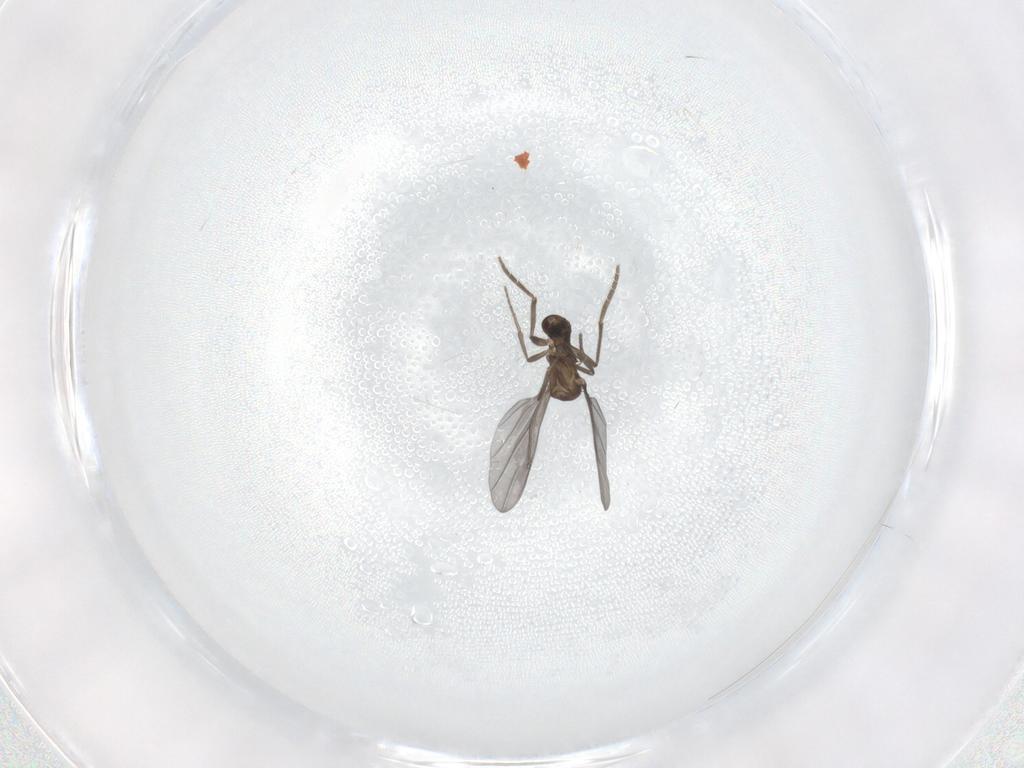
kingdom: Animalia
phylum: Arthropoda
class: Insecta
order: Diptera
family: Phoridae
